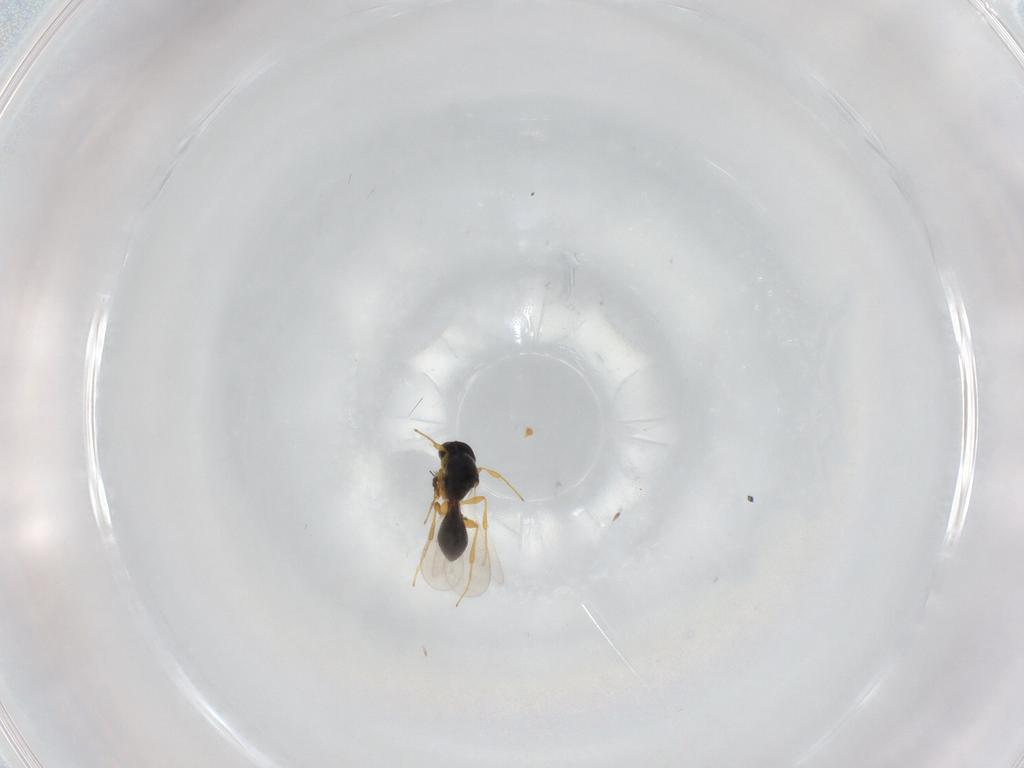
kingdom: Animalia
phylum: Arthropoda
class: Insecta
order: Hymenoptera
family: Platygastridae
